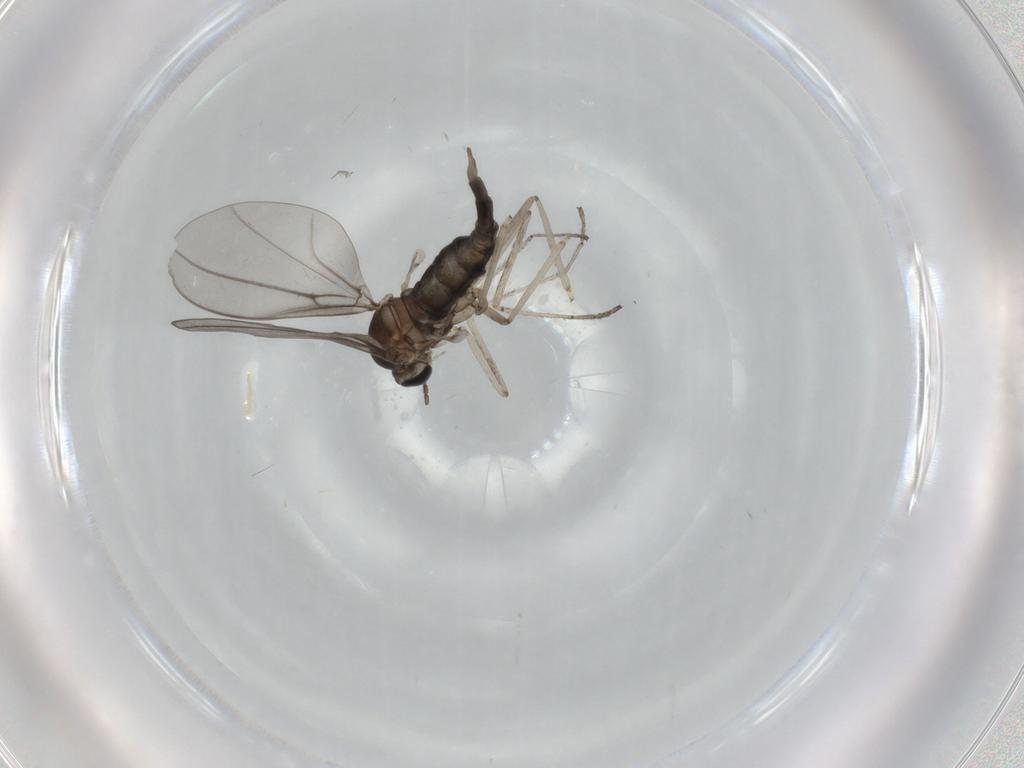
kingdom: Animalia
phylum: Arthropoda
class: Insecta
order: Diptera
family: Cecidomyiidae
